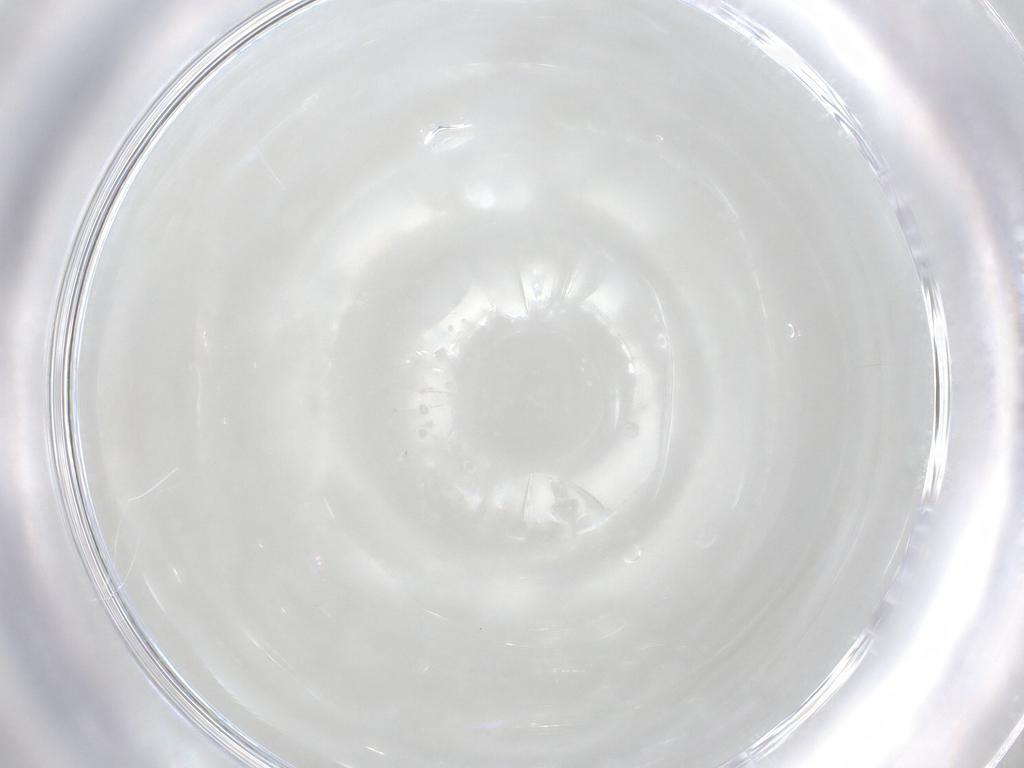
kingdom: Animalia
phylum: Arthropoda
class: Insecta
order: Hymenoptera
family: Mymaridae
